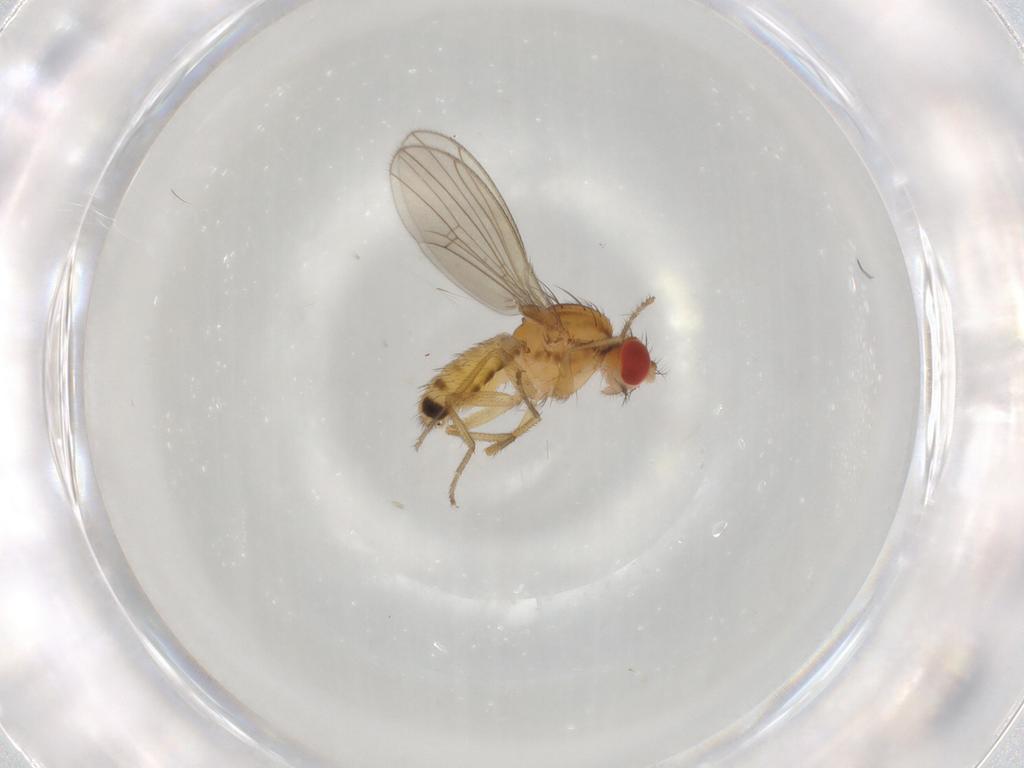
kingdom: Animalia
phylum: Arthropoda
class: Insecta
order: Diptera
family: Drosophilidae
